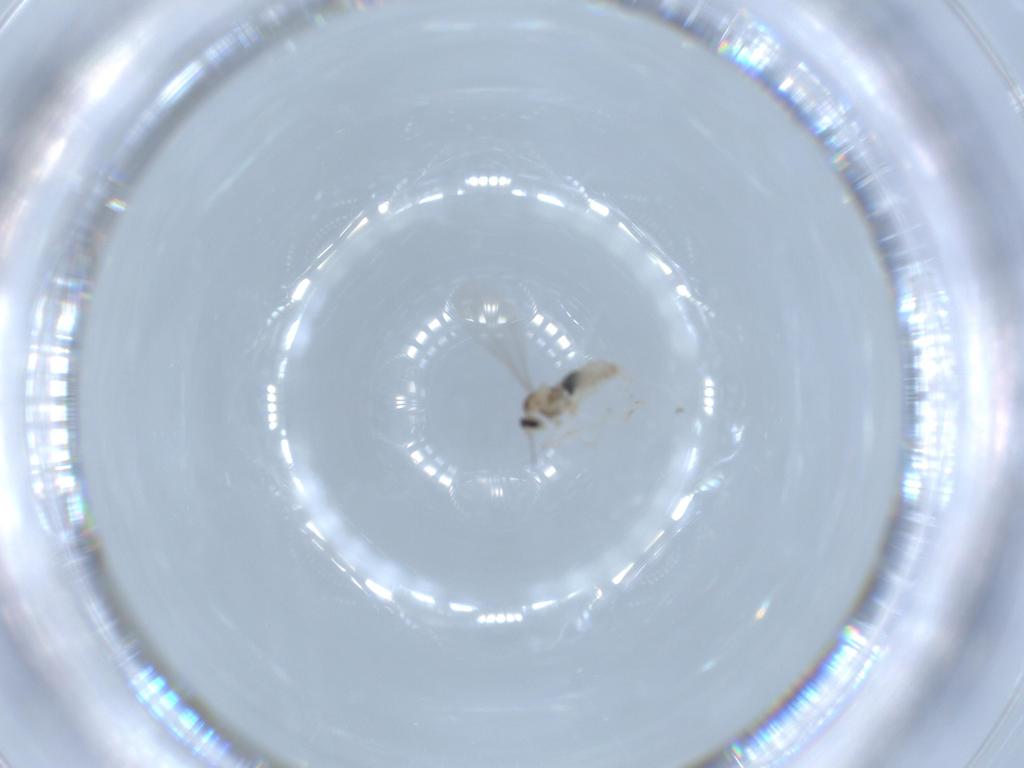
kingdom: Animalia
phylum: Arthropoda
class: Insecta
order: Diptera
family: Cecidomyiidae
